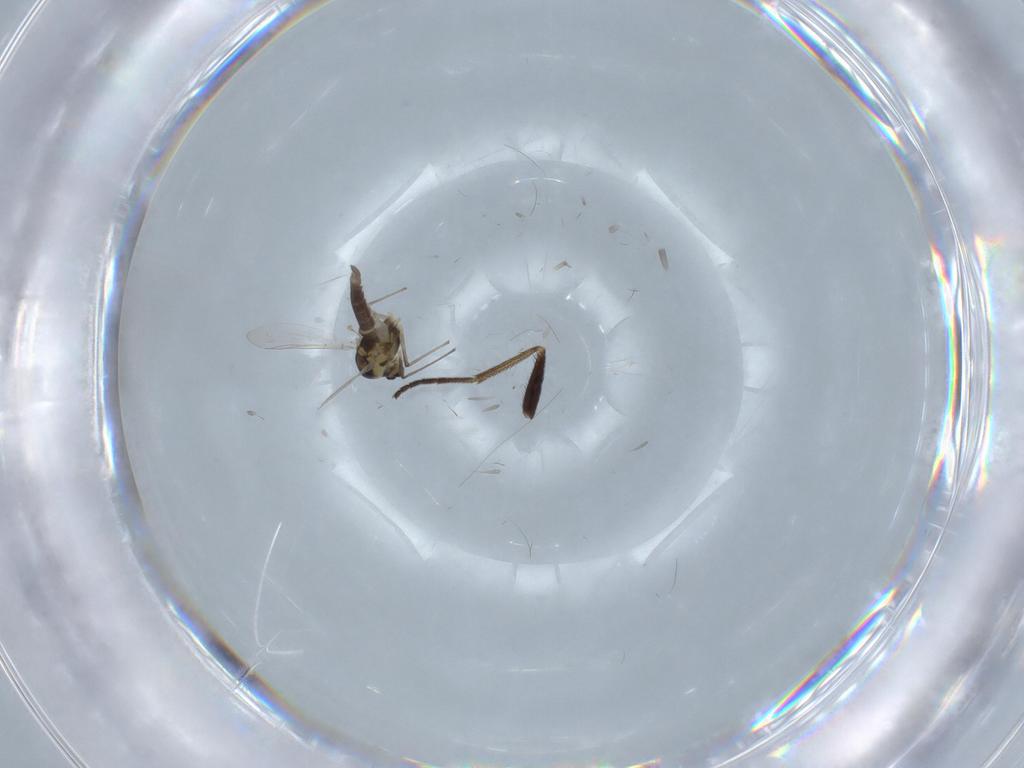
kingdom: Animalia
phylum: Arthropoda
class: Insecta
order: Diptera
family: Chironomidae
